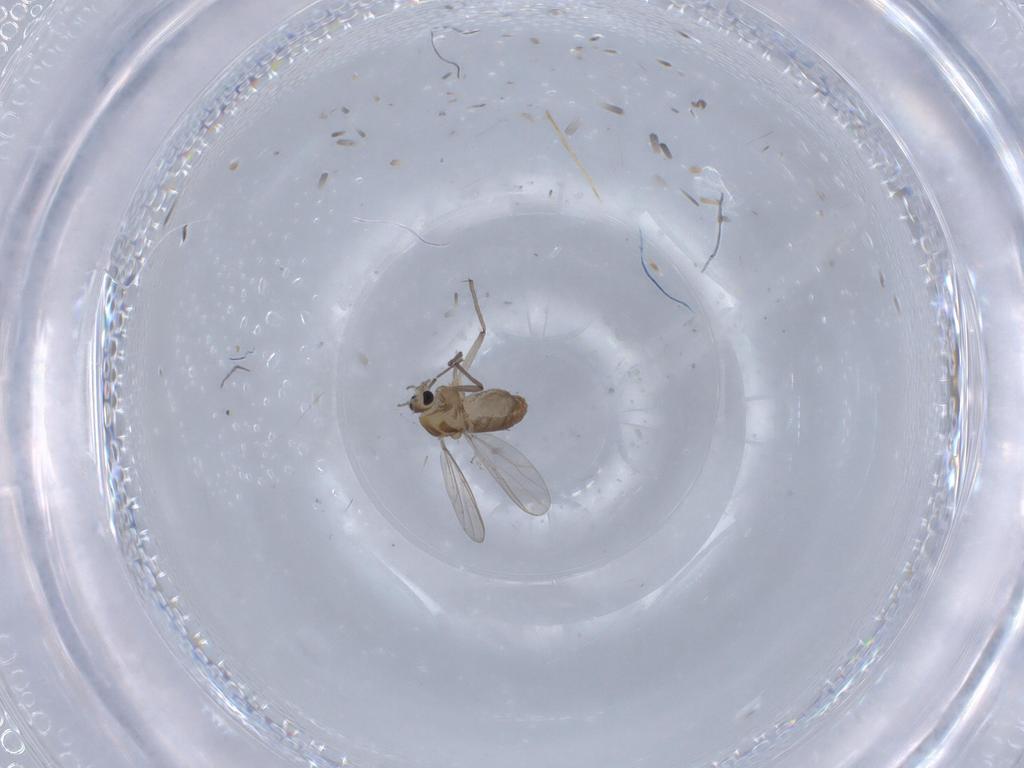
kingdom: Animalia
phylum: Arthropoda
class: Insecta
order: Diptera
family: Chironomidae
